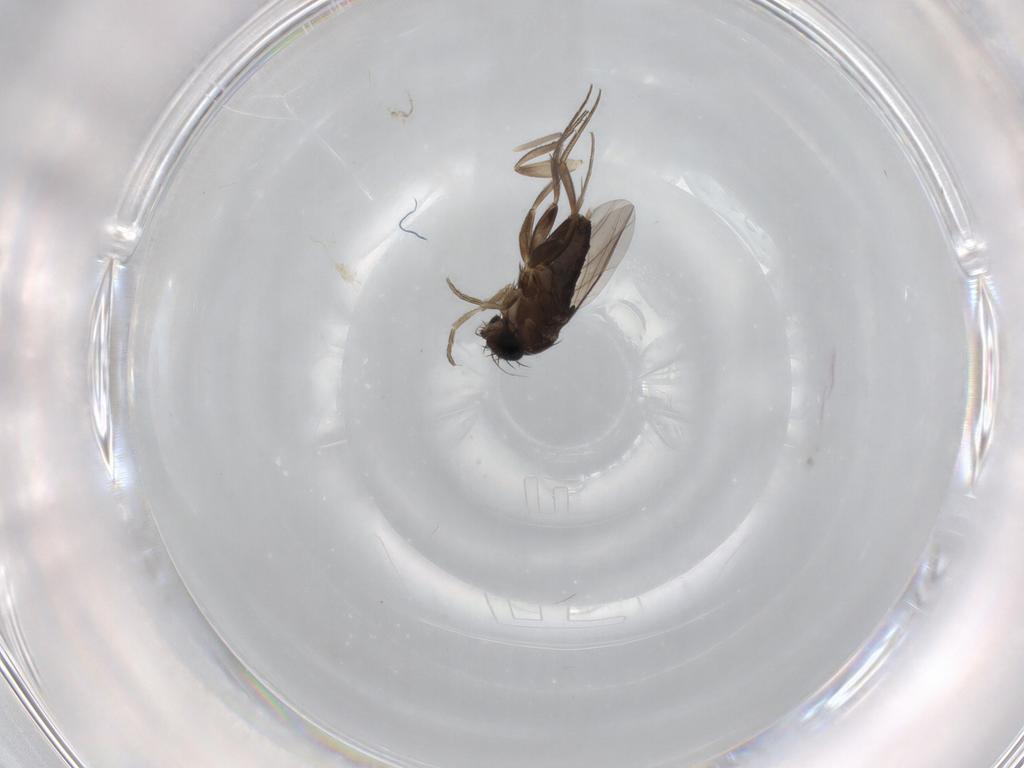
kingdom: Animalia
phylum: Arthropoda
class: Insecta
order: Diptera
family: Phoridae
